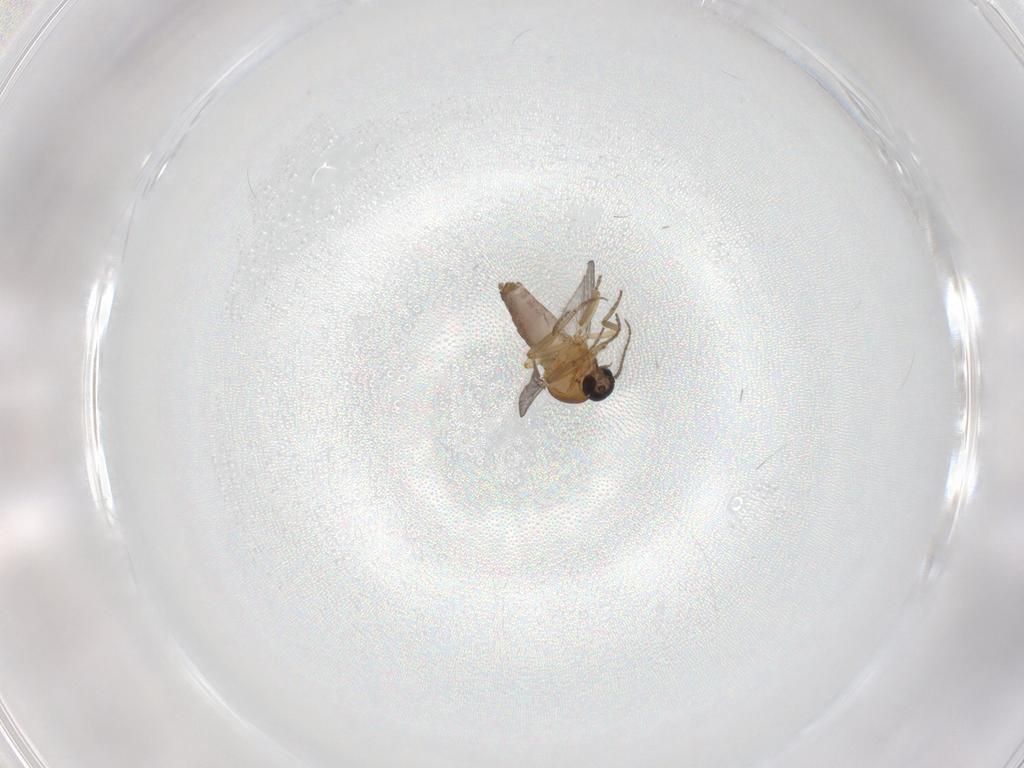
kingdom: Animalia
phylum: Arthropoda
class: Insecta
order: Diptera
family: Ceratopogonidae
